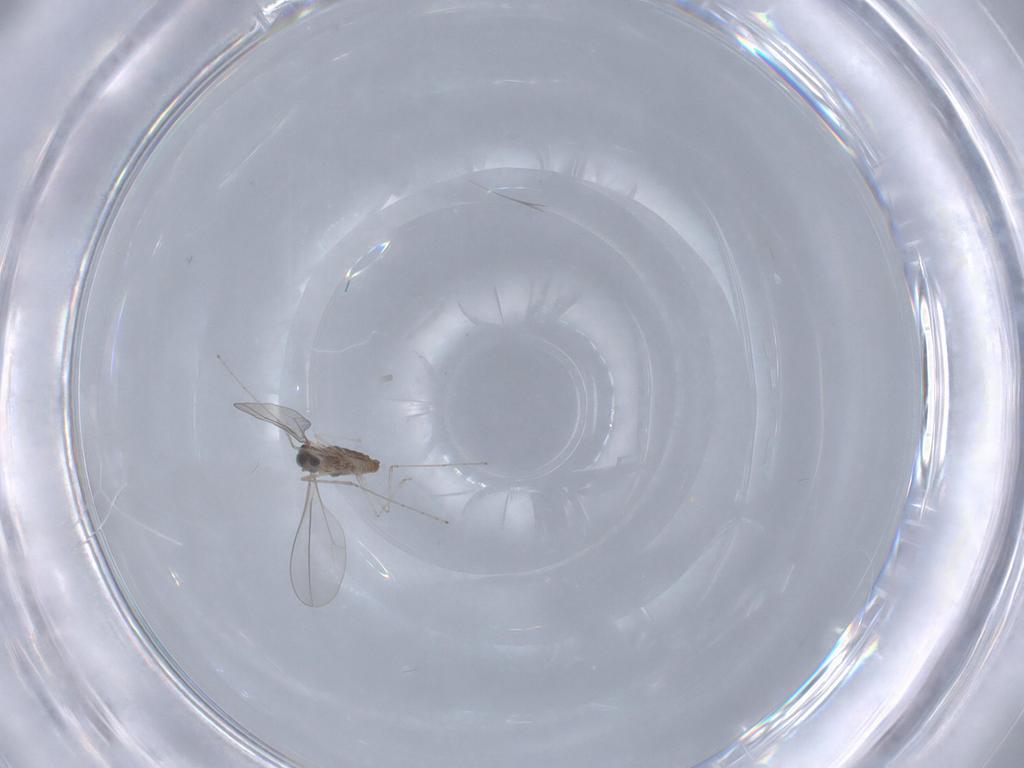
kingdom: Animalia
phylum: Arthropoda
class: Insecta
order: Diptera
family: Cecidomyiidae
